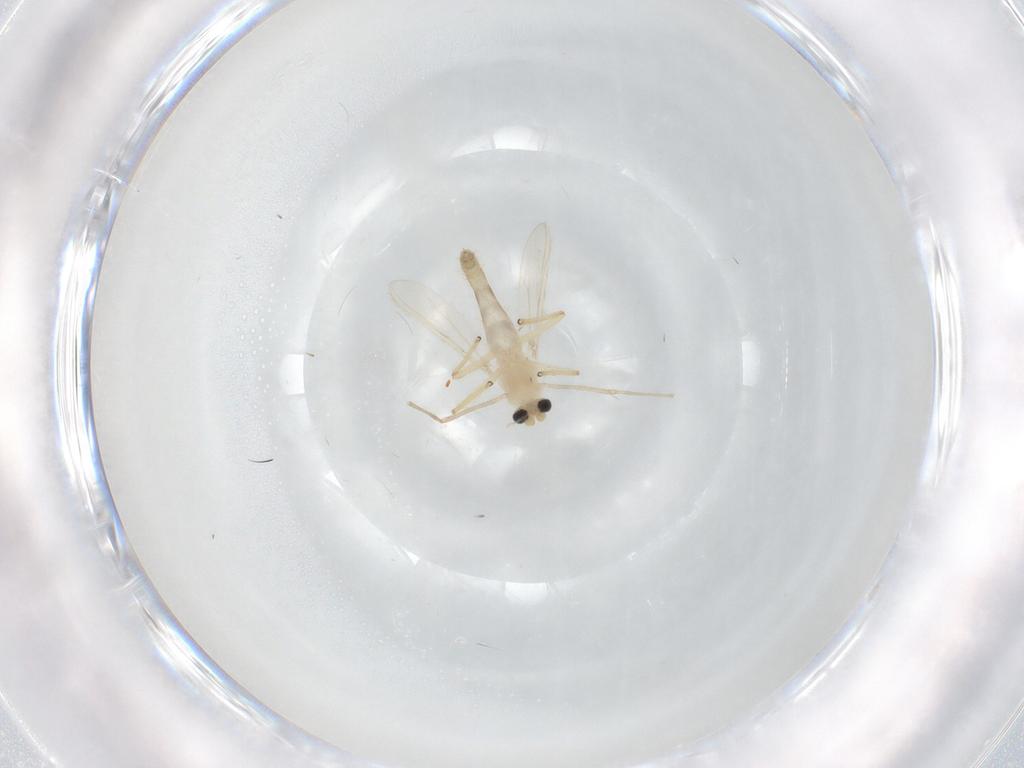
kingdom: Animalia
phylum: Arthropoda
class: Insecta
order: Diptera
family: Chironomidae
